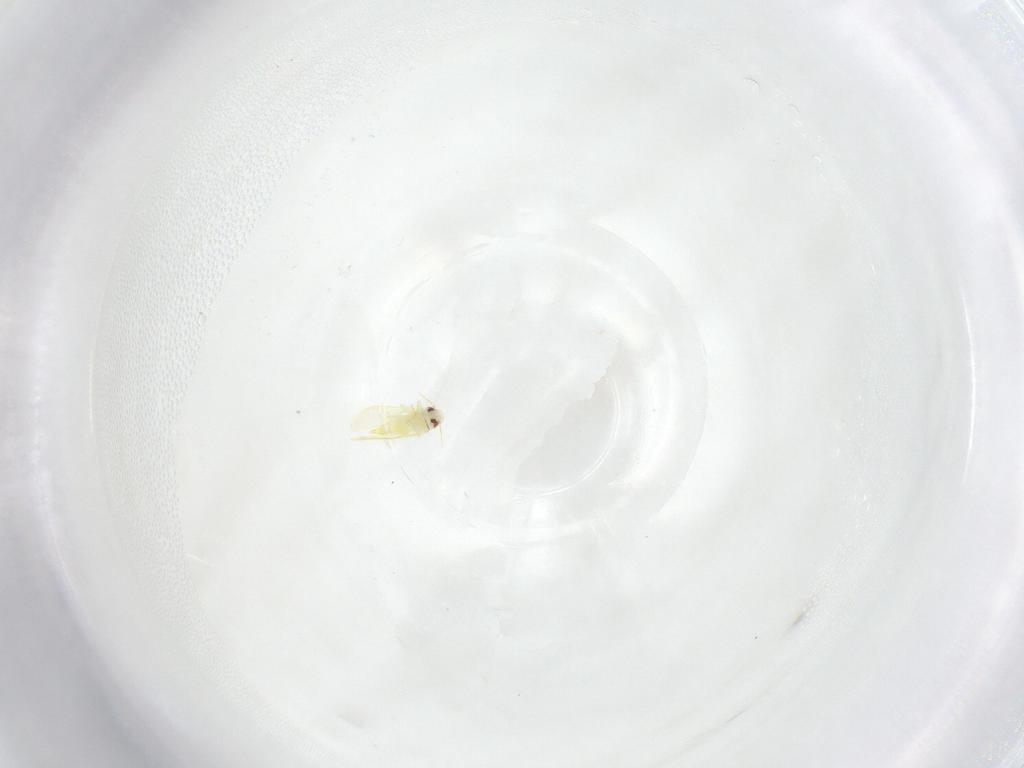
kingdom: Animalia
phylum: Arthropoda
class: Insecta
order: Hemiptera
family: Aleyrodidae
